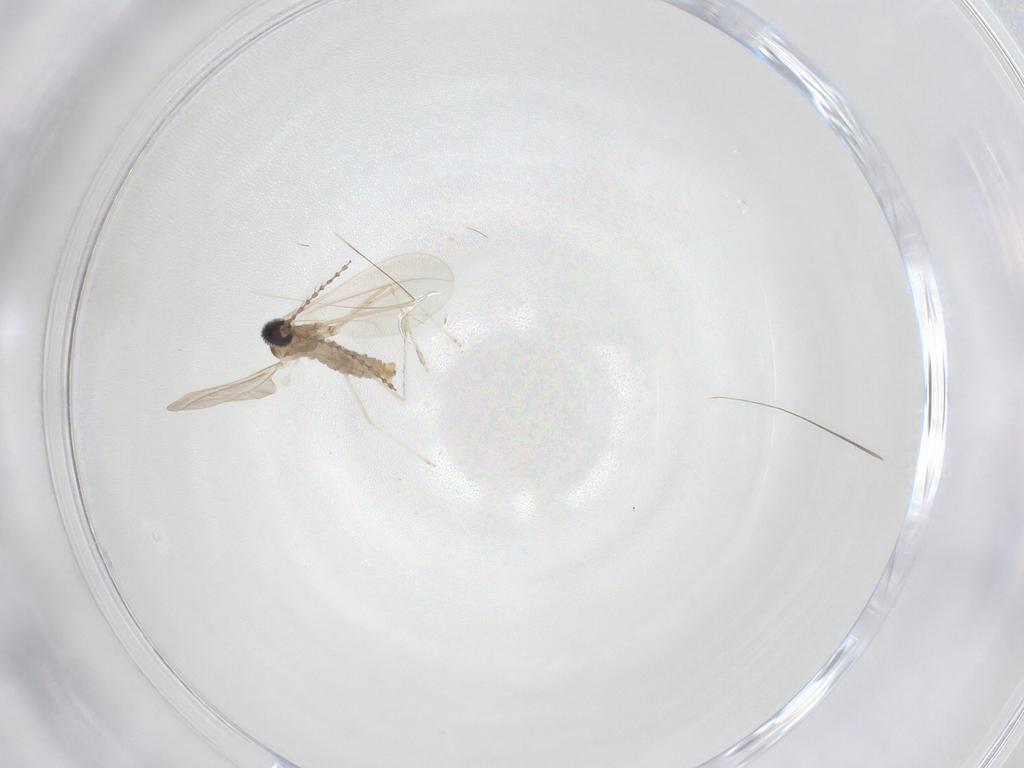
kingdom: Animalia
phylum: Arthropoda
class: Insecta
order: Diptera
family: Cecidomyiidae
